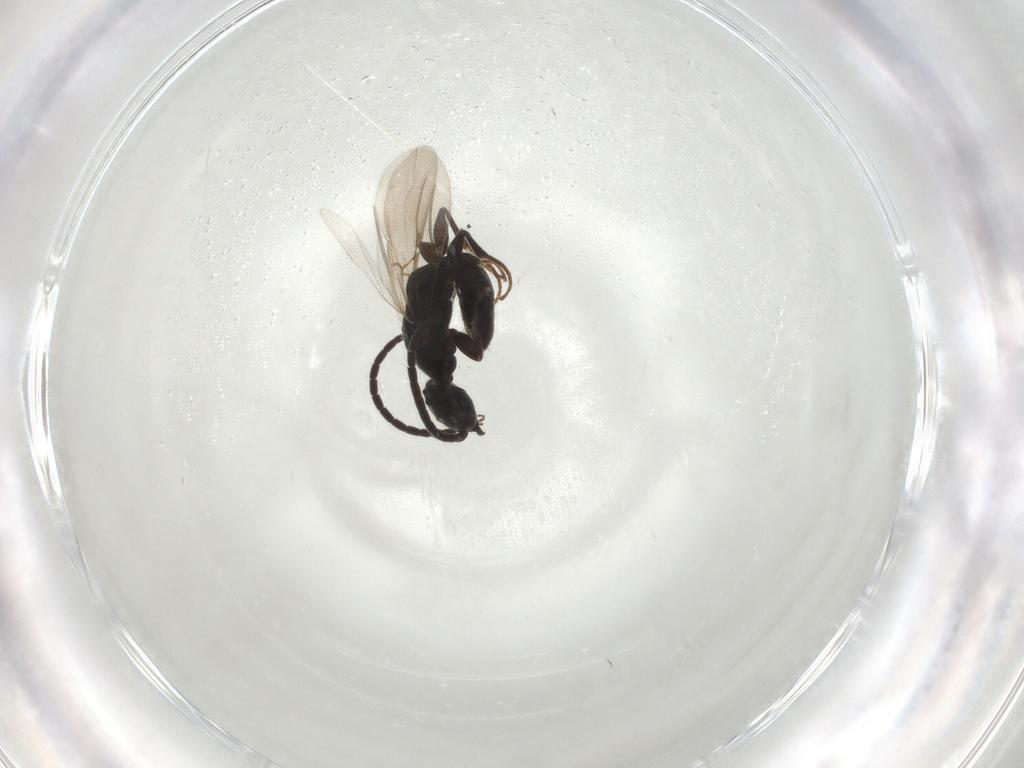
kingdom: Animalia
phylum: Arthropoda
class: Insecta
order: Hymenoptera
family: Bethylidae
